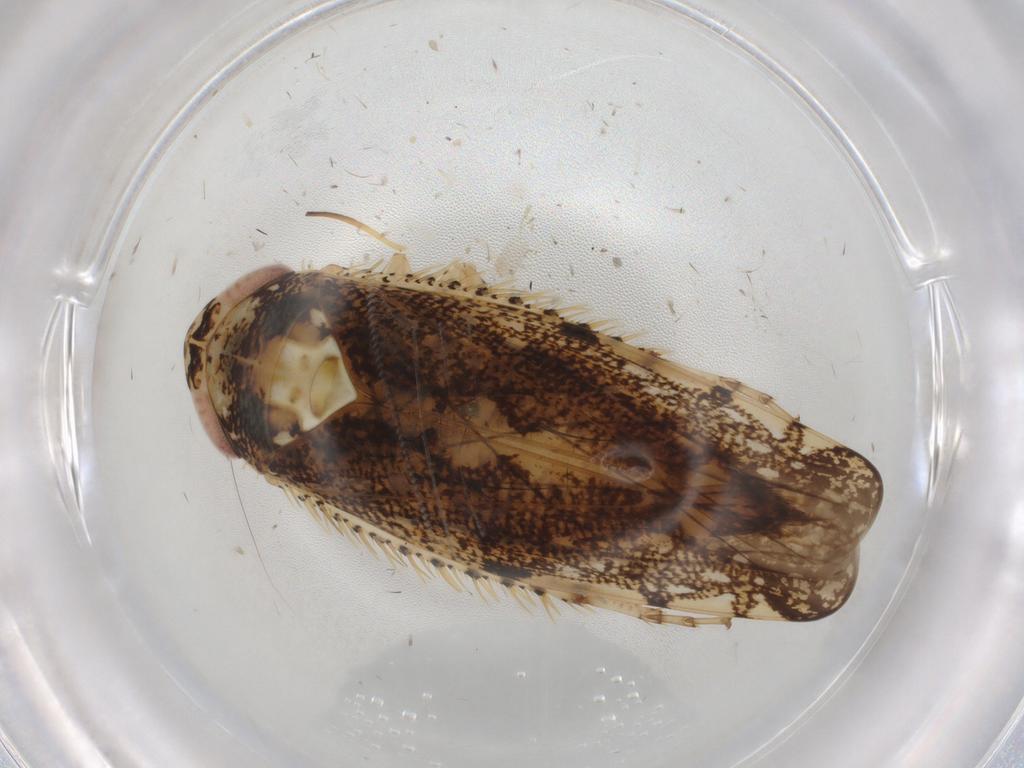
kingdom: Animalia
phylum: Arthropoda
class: Insecta
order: Hemiptera
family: Cicadellidae
